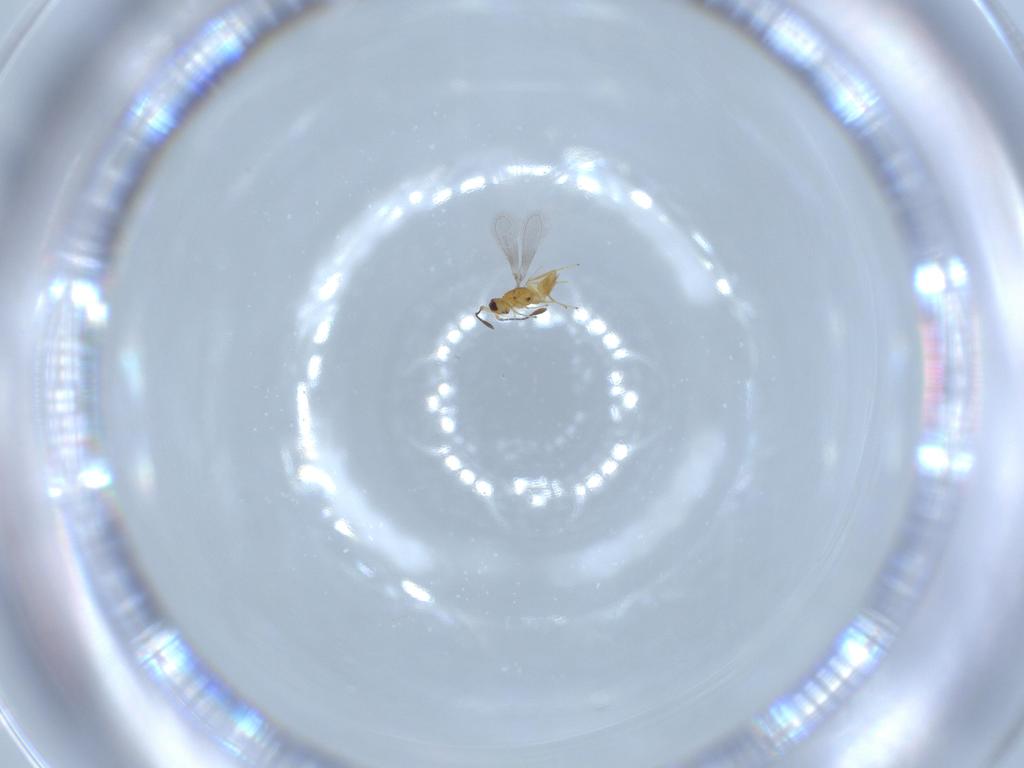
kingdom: Animalia
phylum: Arthropoda
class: Insecta
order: Hymenoptera
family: Mymaridae
